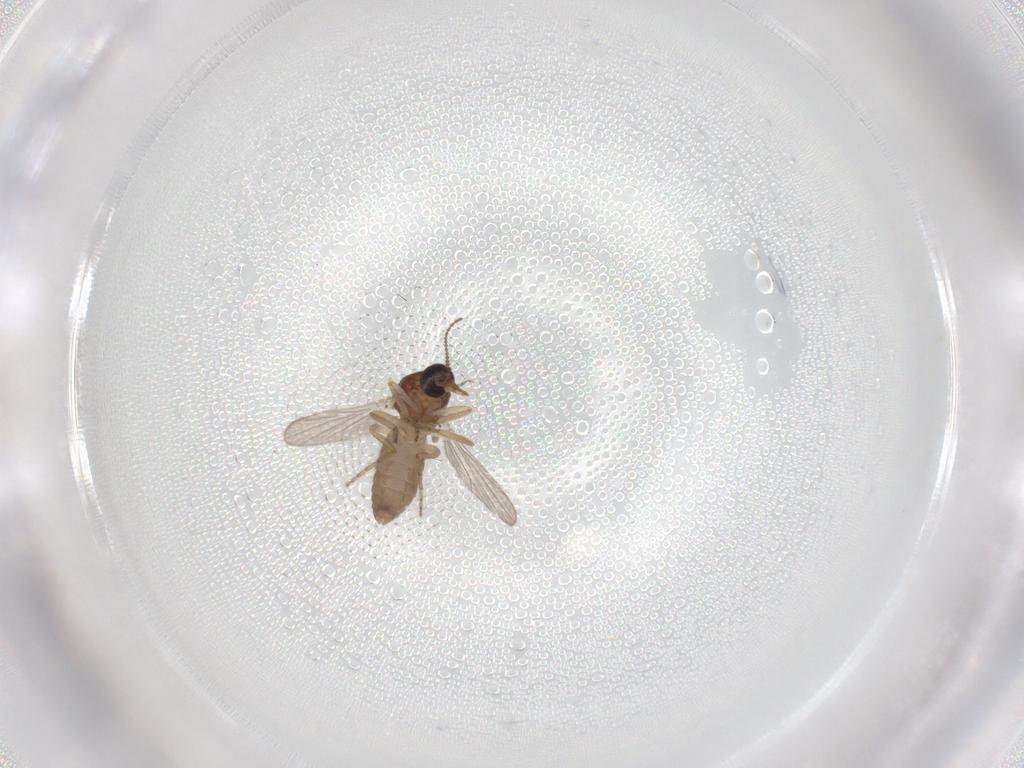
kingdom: Animalia
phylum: Arthropoda
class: Insecta
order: Diptera
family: Ceratopogonidae
